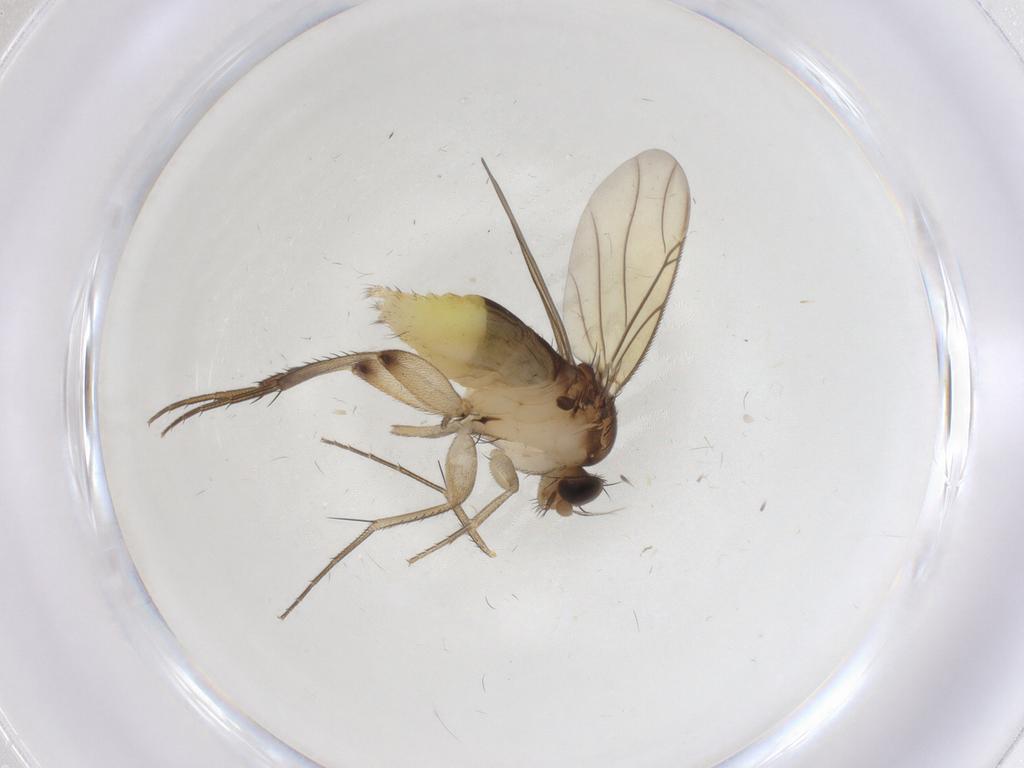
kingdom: Animalia
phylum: Arthropoda
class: Insecta
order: Diptera
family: Phoridae
